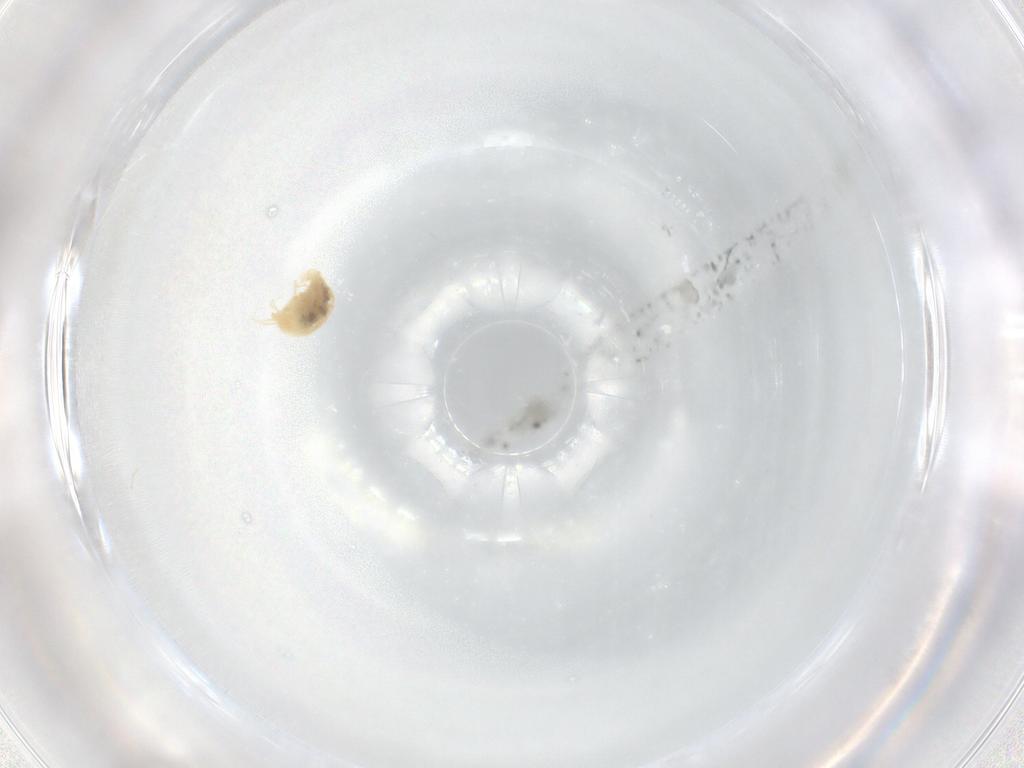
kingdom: Animalia
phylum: Arthropoda
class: Arachnida
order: Trombidiformes
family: Tetranychidae
